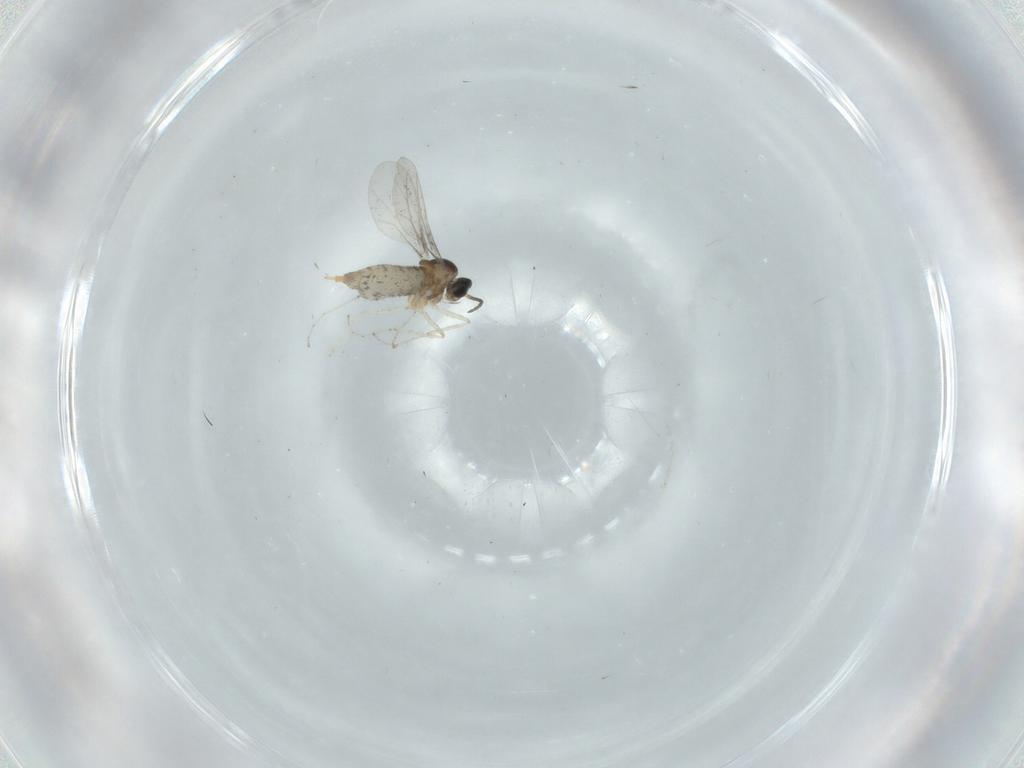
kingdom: Animalia
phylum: Arthropoda
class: Insecta
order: Diptera
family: Cecidomyiidae
